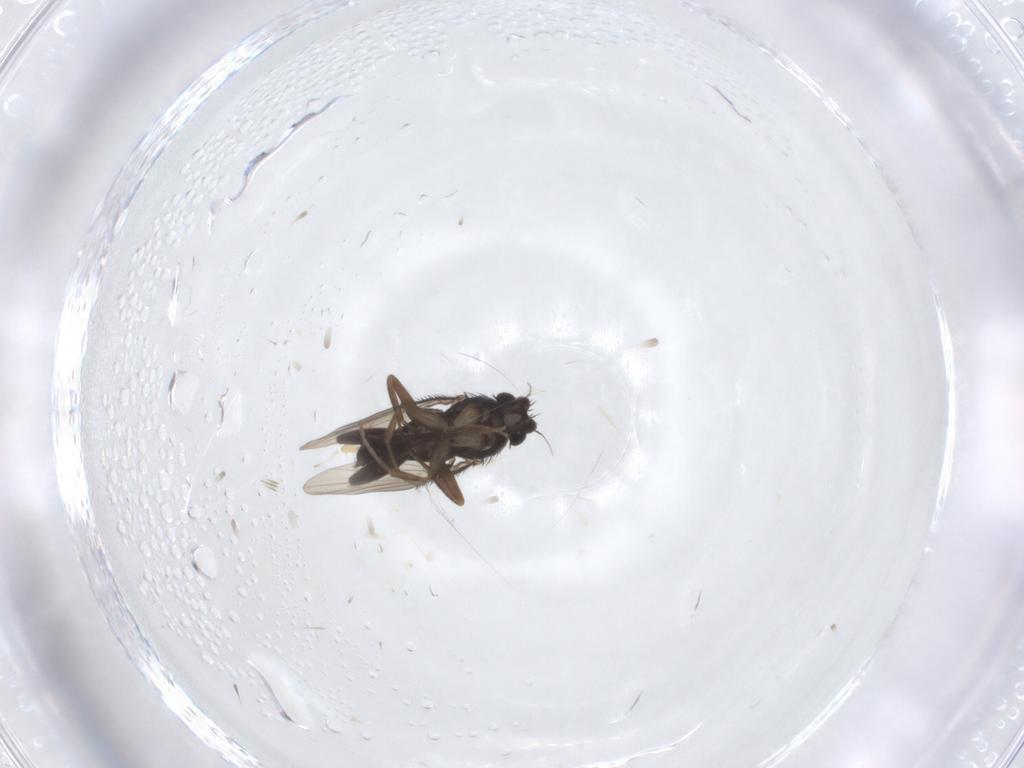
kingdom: Animalia
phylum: Arthropoda
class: Insecta
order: Diptera
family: Phoridae
